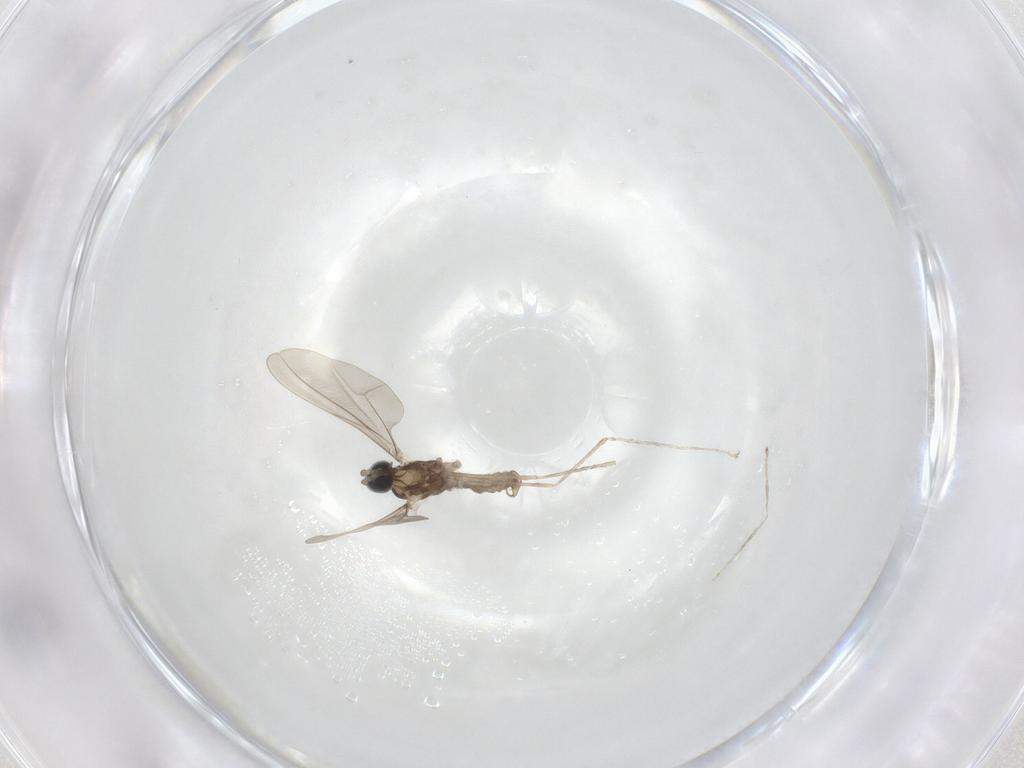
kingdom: Animalia
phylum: Arthropoda
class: Insecta
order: Diptera
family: Cecidomyiidae
